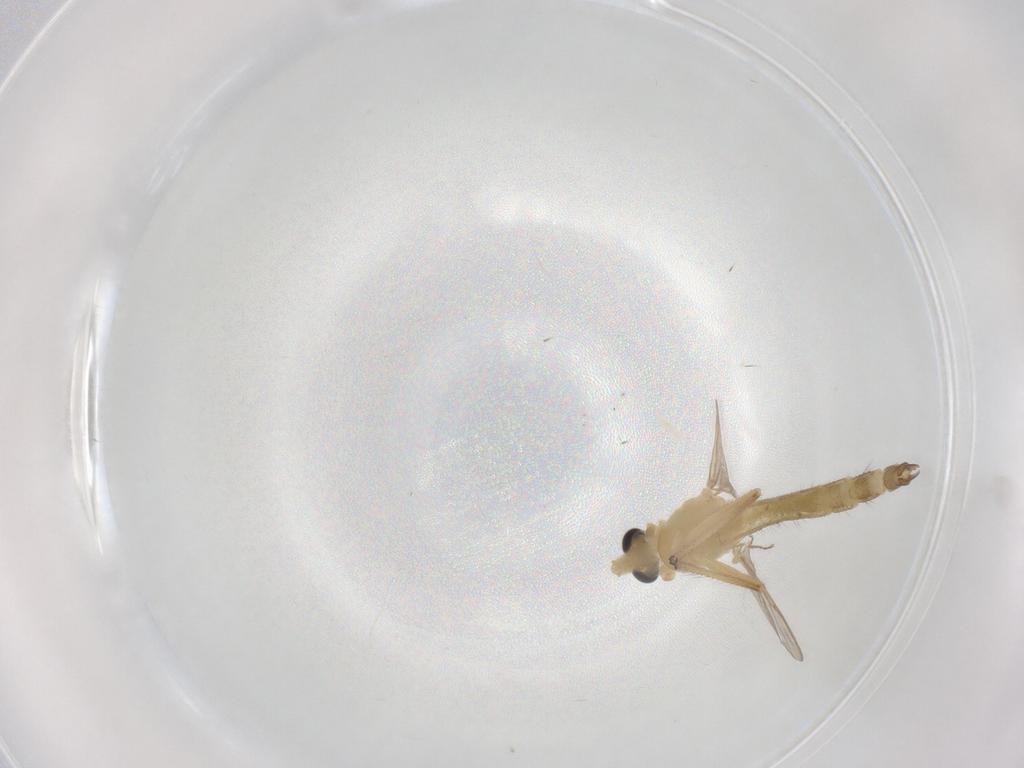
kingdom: Animalia
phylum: Arthropoda
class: Insecta
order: Diptera
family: Chironomidae
